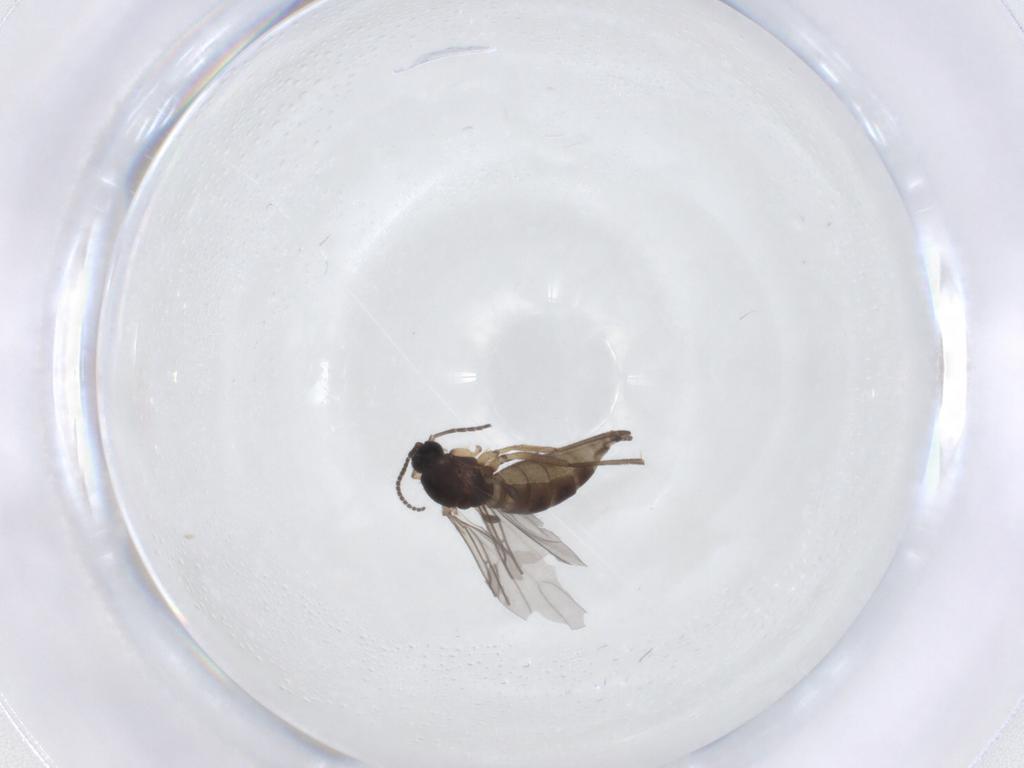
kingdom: Animalia
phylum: Arthropoda
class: Insecta
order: Diptera
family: Sciaridae
